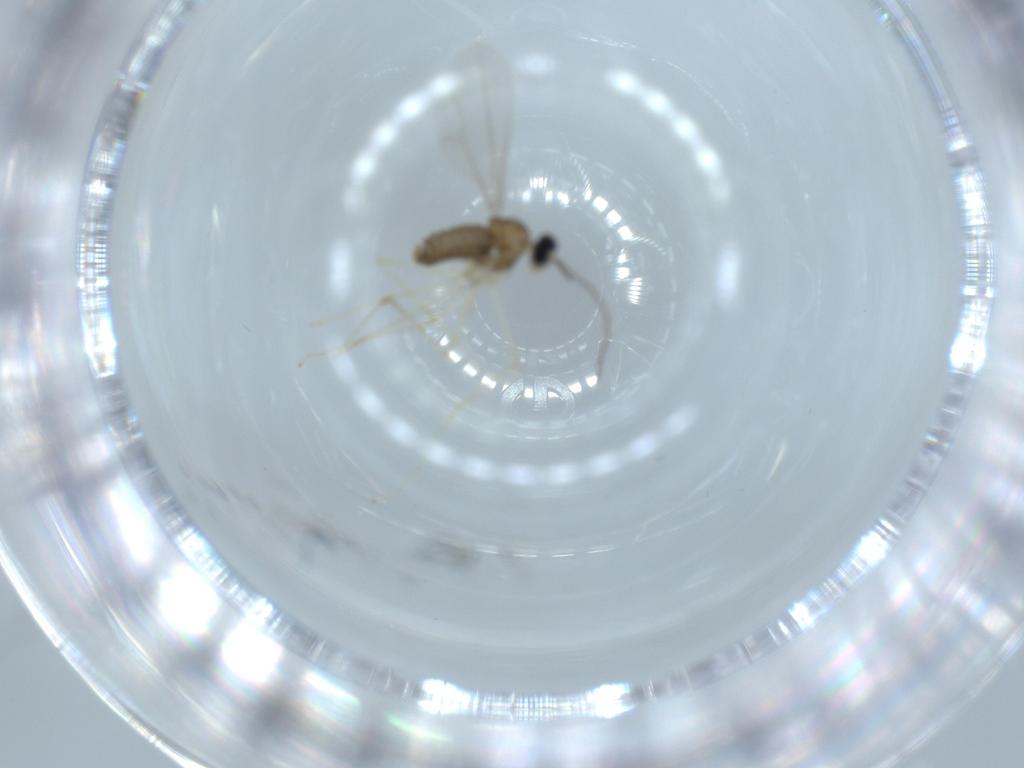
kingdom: Animalia
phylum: Arthropoda
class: Insecta
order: Diptera
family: Cecidomyiidae
